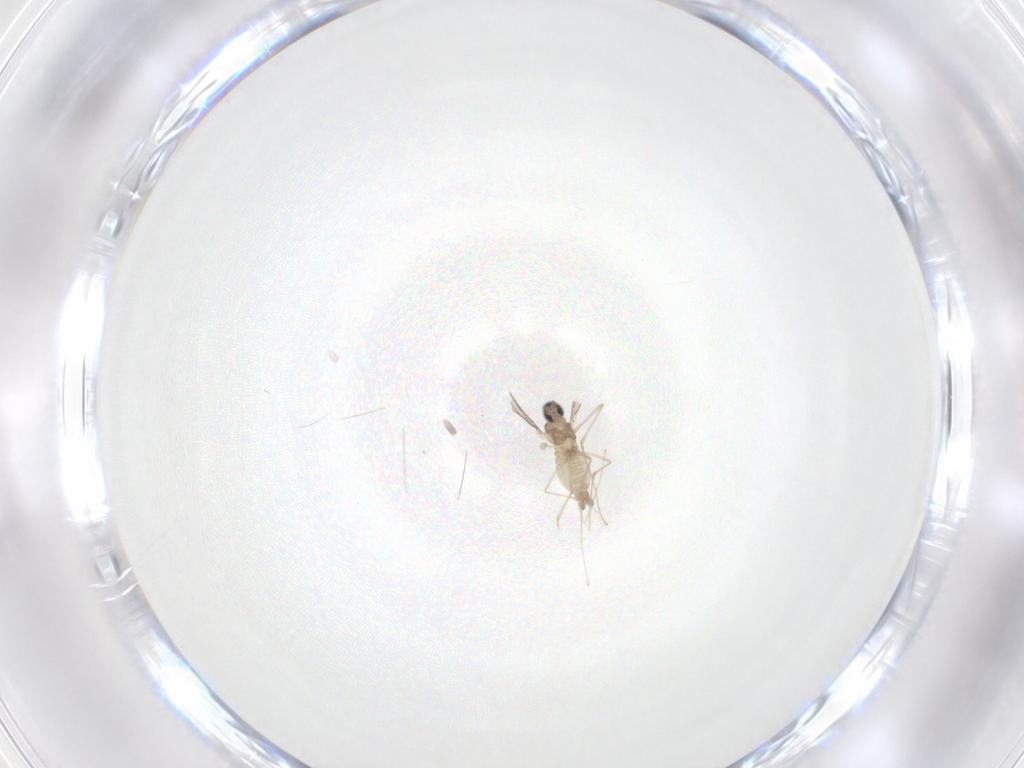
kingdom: Animalia
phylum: Arthropoda
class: Insecta
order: Diptera
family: Cecidomyiidae
